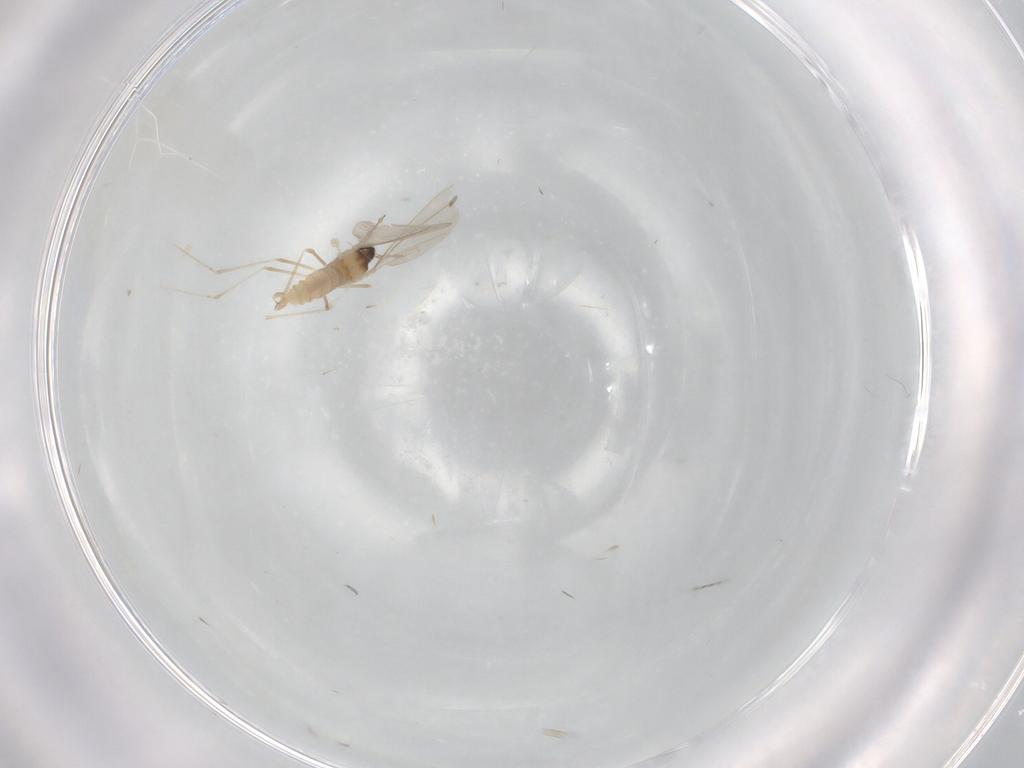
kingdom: Animalia
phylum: Arthropoda
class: Insecta
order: Diptera
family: Cecidomyiidae
